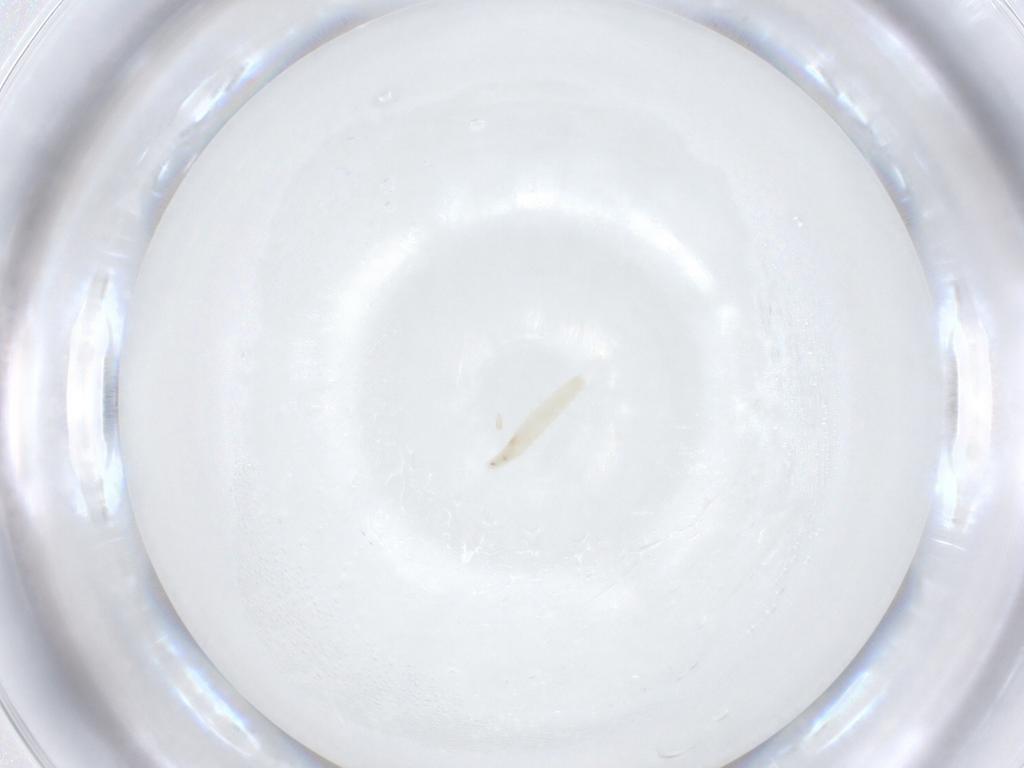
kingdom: Animalia
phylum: Arthropoda
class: Insecta
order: Diptera
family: Sarcophagidae
